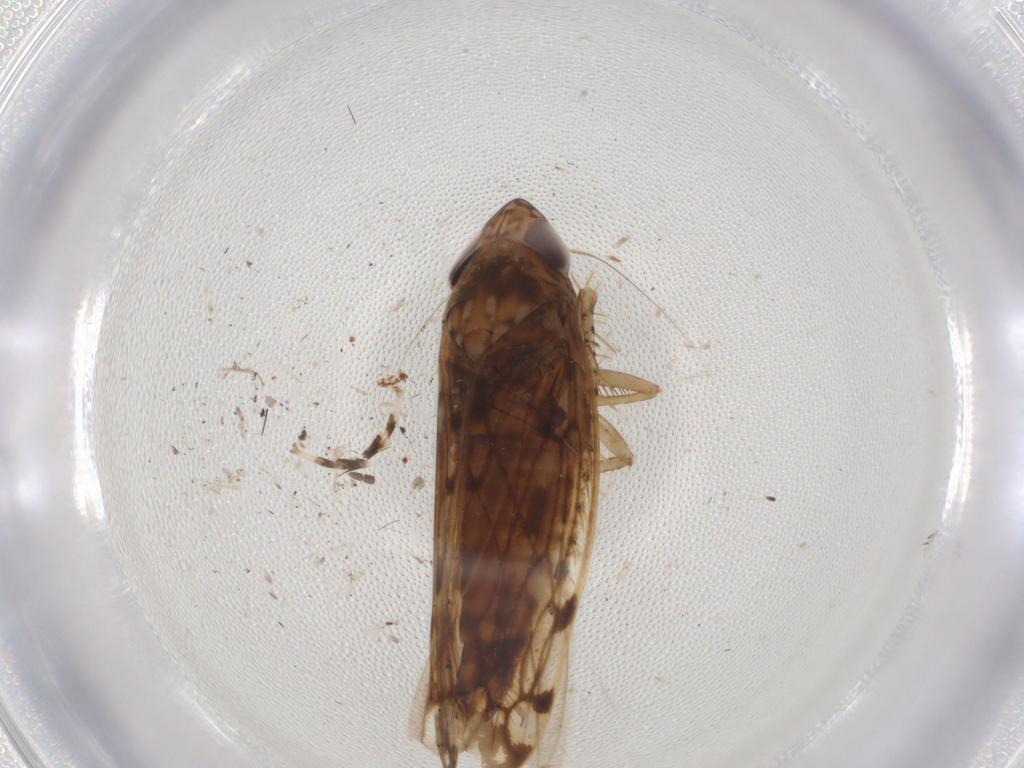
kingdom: Animalia
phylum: Arthropoda
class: Insecta
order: Hemiptera
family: Cicadellidae
